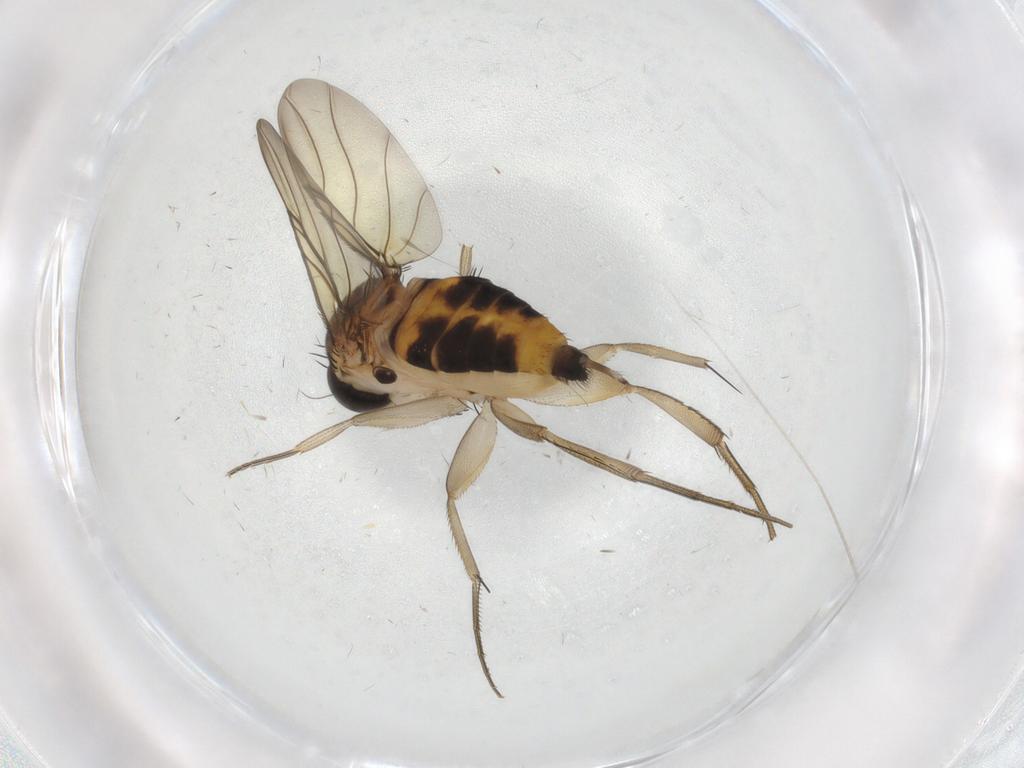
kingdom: Animalia
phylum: Arthropoda
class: Insecta
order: Diptera
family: Phoridae
